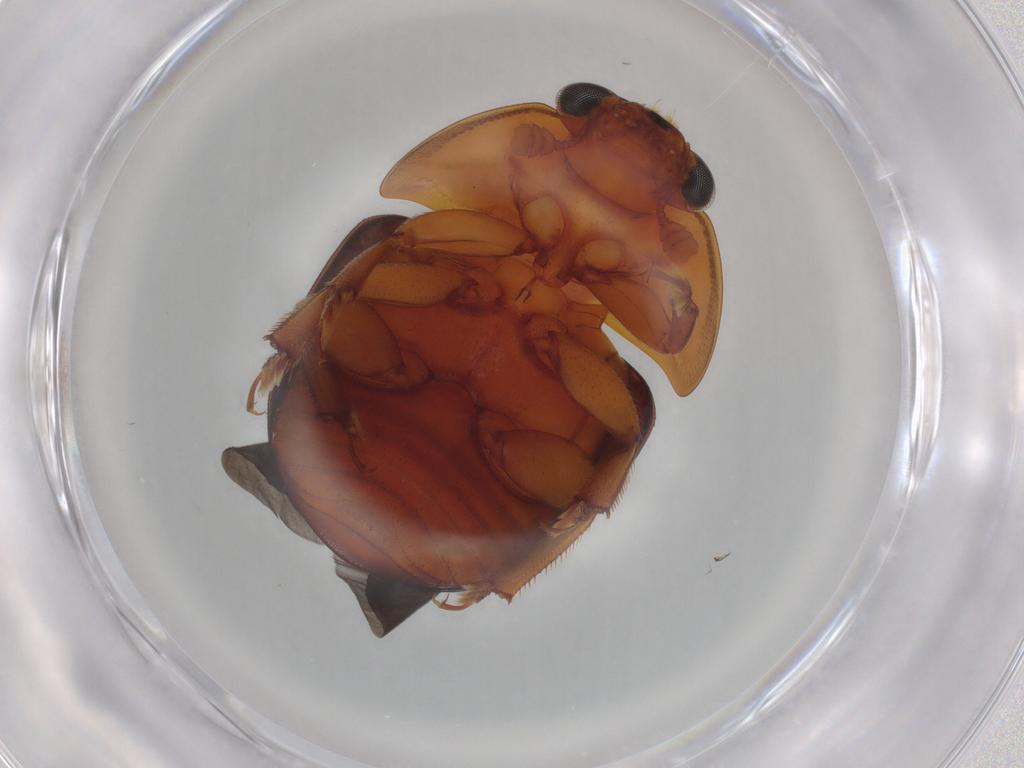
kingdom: Animalia
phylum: Arthropoda
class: Insecta
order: Coleoptera
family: Nitidulidae
